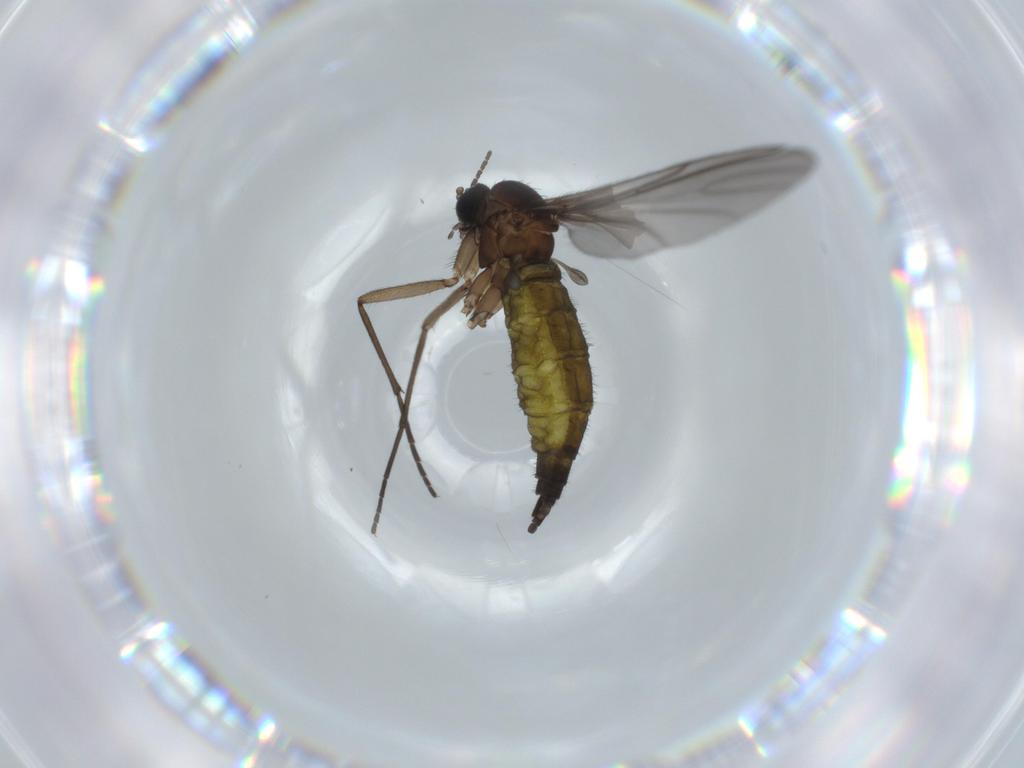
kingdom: Animalia
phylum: Arthropoda
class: Insecta
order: Diptera
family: Sciaridae
